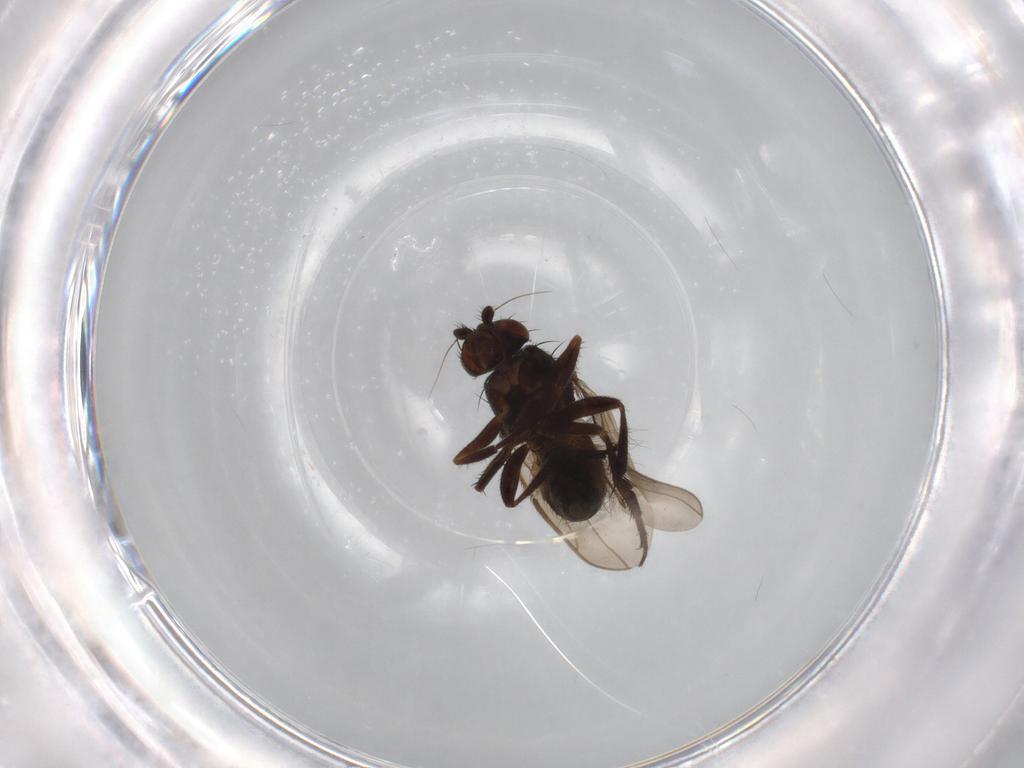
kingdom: Animalia
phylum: Arthropoda
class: Insecta
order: Diptera
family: Sphaeroceridae
